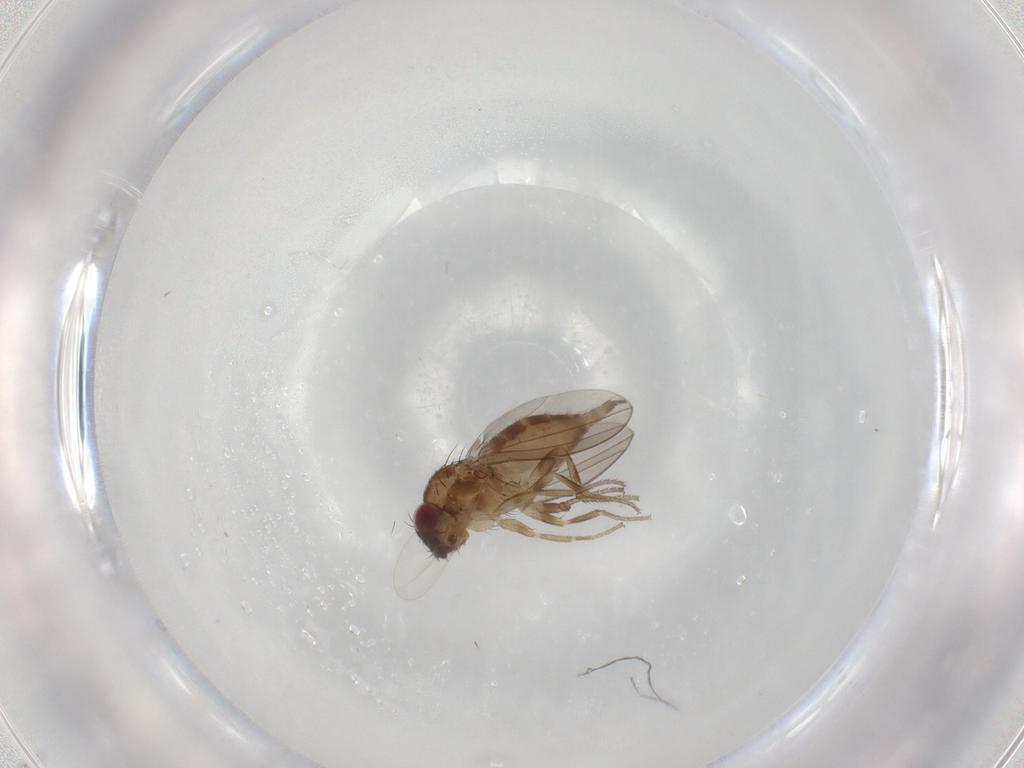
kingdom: Animalia
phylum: Arthropoda
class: Insecta
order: Diptera
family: Milichiidae
